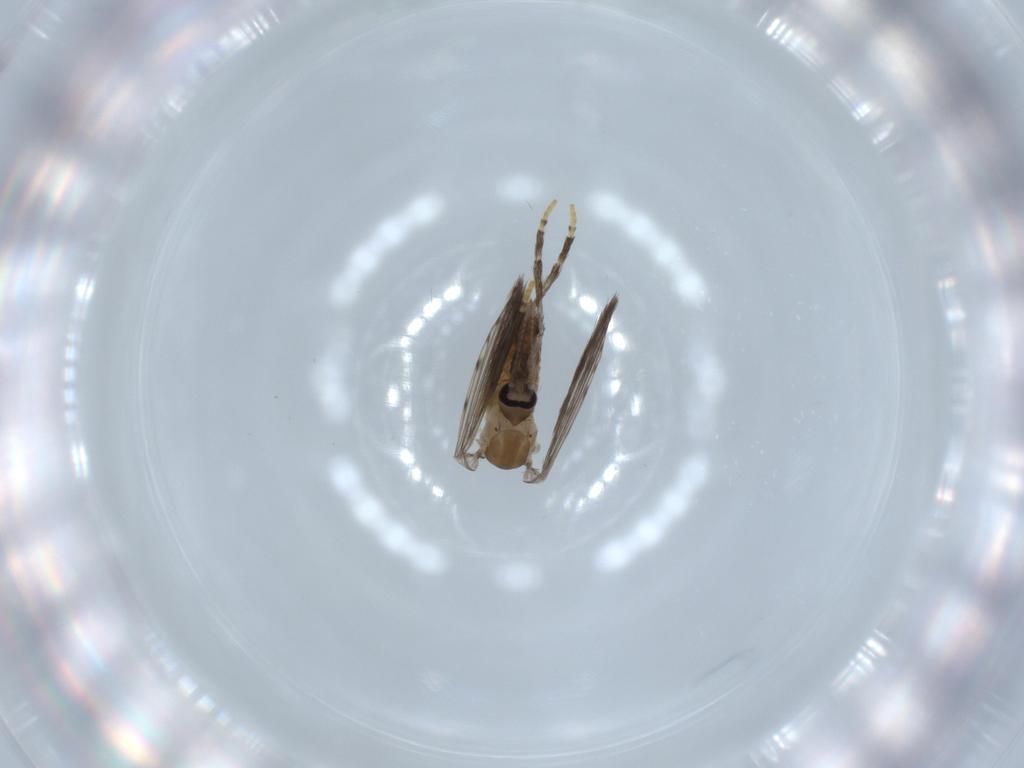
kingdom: Animalia
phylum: Arthropoda
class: Insecta
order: Diptera
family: Psychodidae
